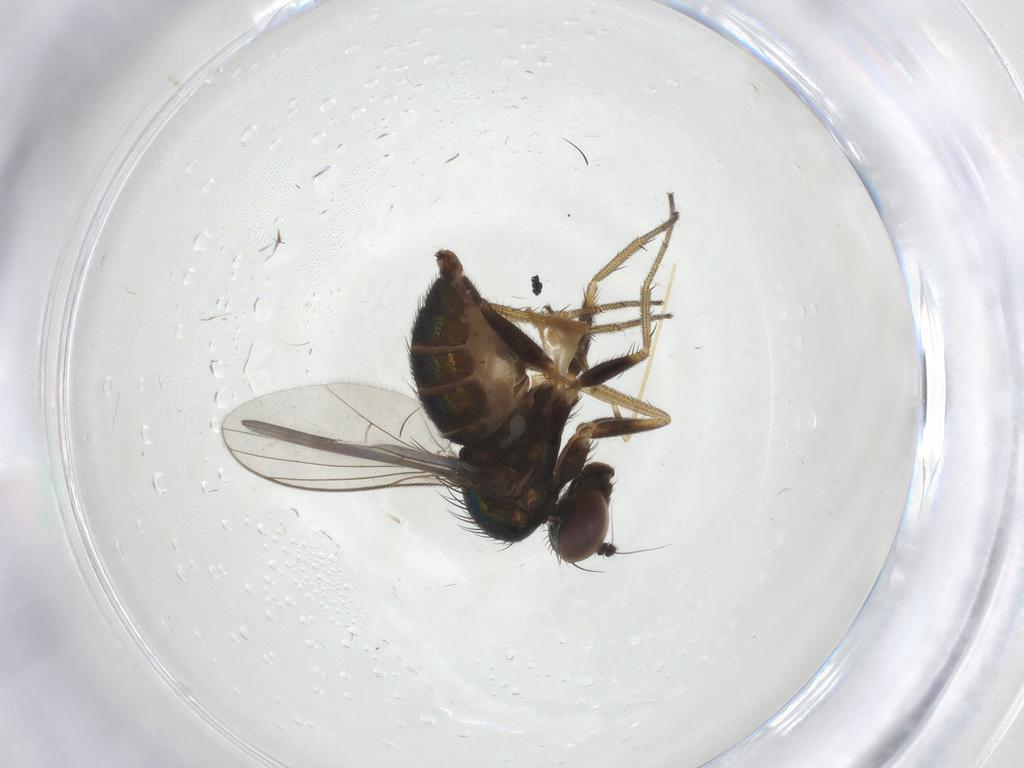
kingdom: Animalia
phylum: Arthropoda
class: Insecta
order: Diptera
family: Dolichopodidae
